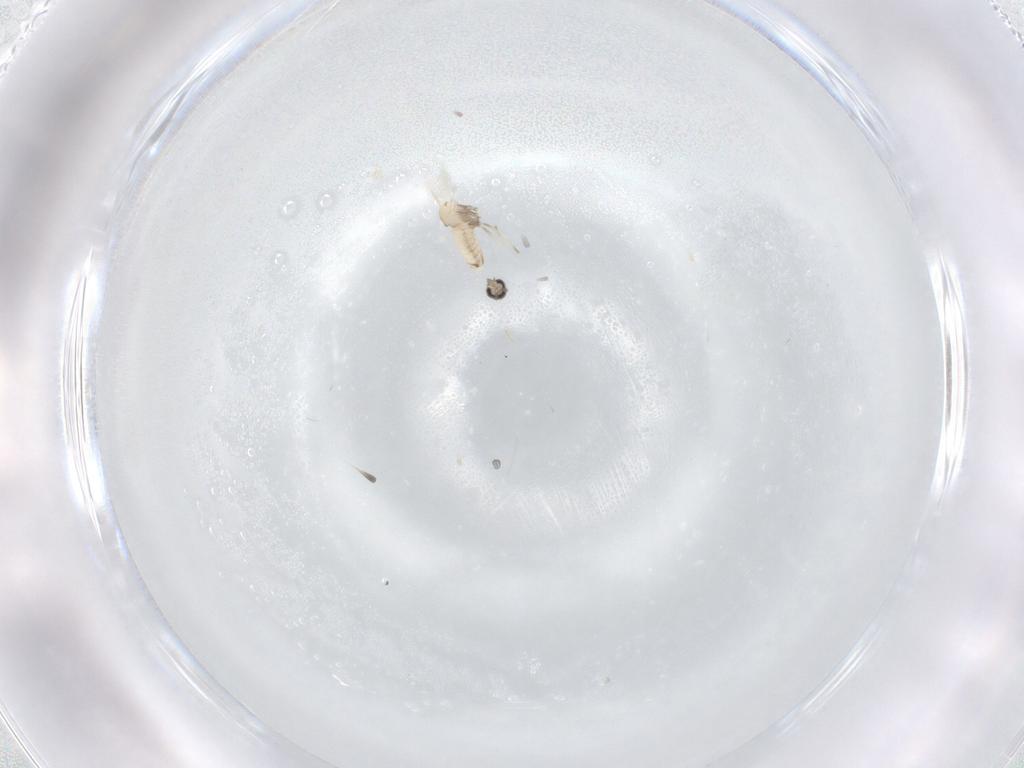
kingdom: Animalia
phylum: Arthropoda
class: Insecta
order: Diptera
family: Cecidomyiidae
